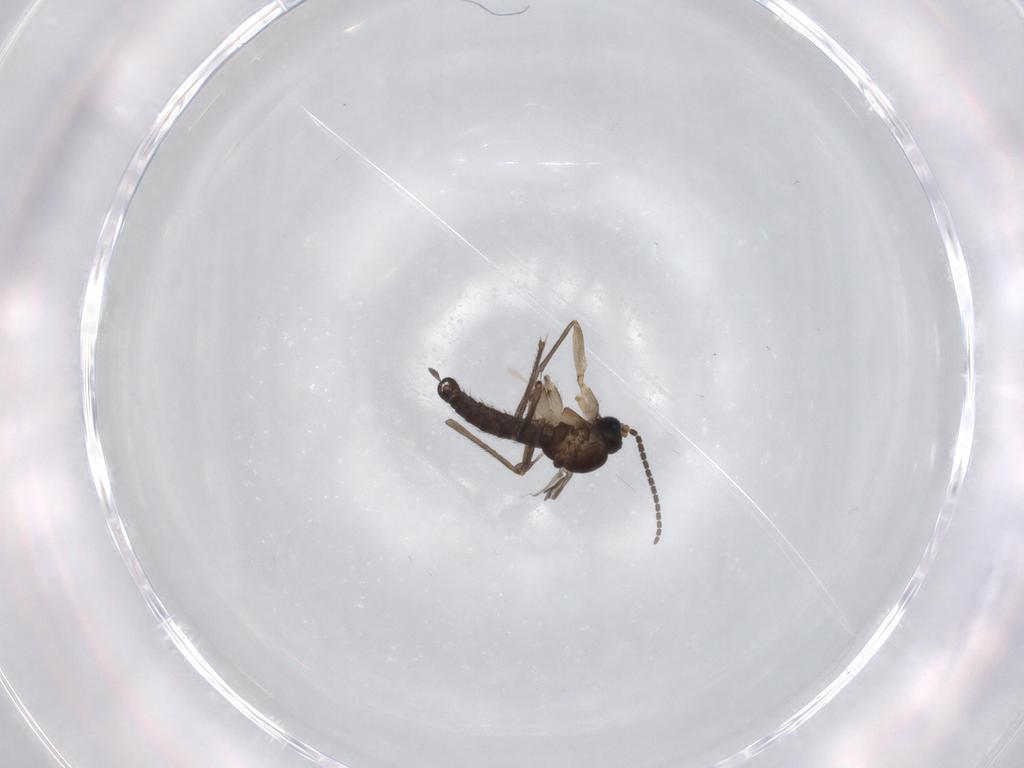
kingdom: Animalia
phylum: Arthropoda
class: Insecta
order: Diptera
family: Sciaridae
